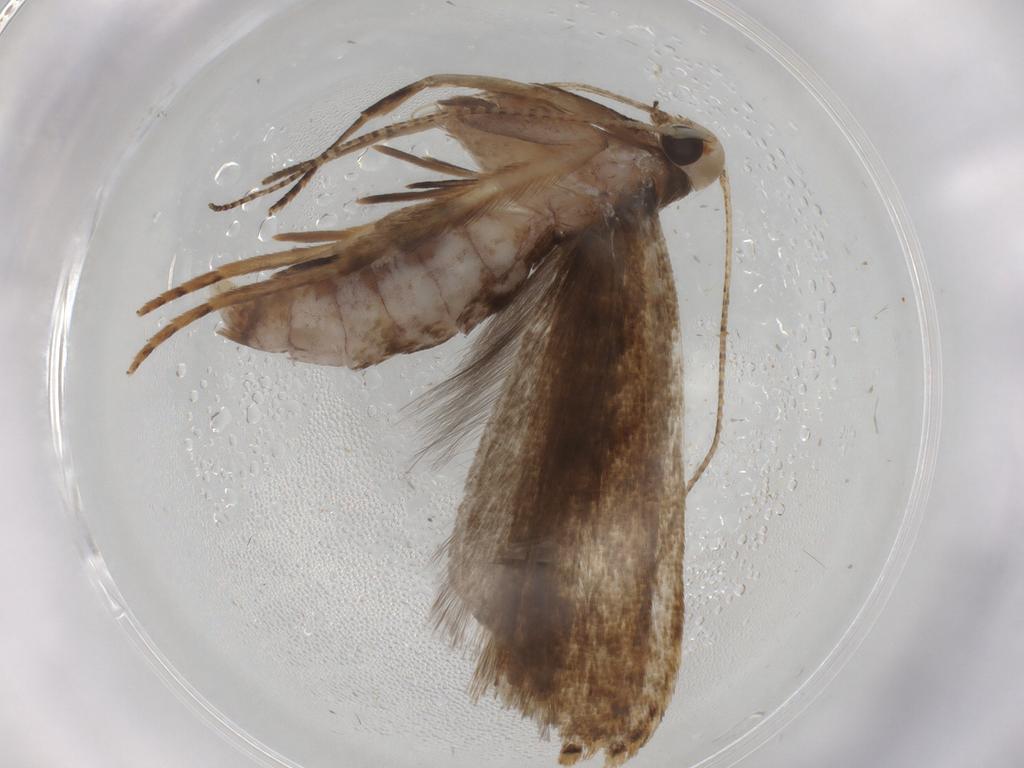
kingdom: Animalia
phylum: Arthropoda
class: Insecta
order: Lepidoptera
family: Gelechiidae
